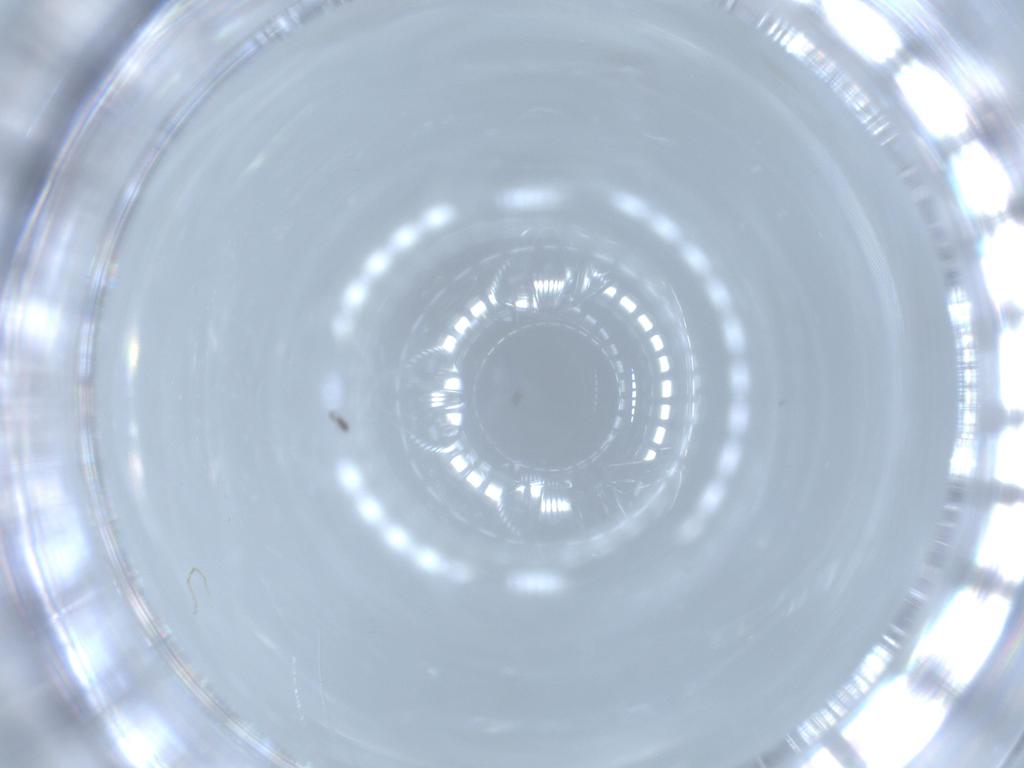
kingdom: Animalia
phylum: Arthropoda
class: Insecta
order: Diptera
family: Ceratopogonidae
